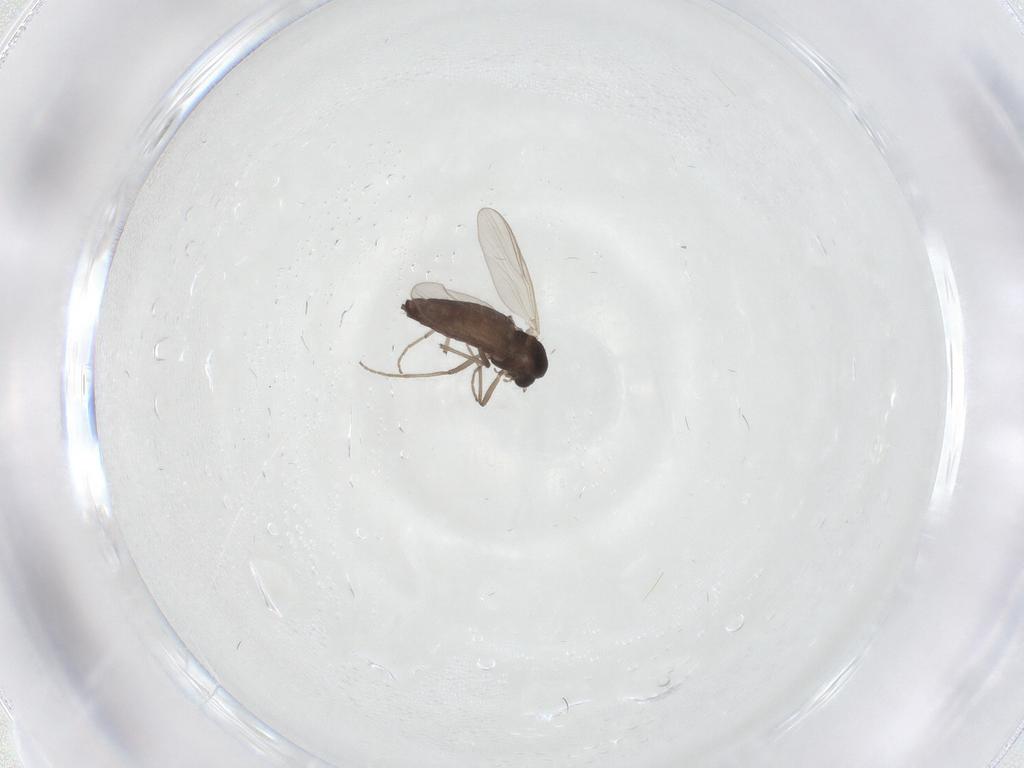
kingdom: Animalia
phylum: Arthropoda
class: Insecta
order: Diptera
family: Chironomidae
